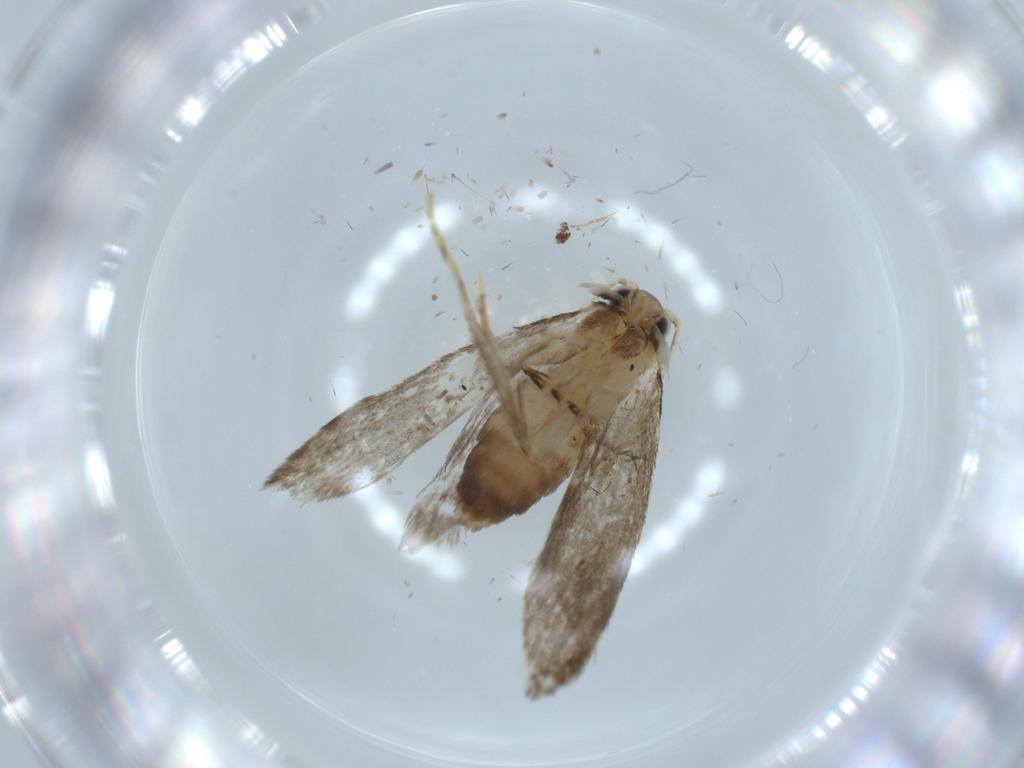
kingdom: Animalia
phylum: Arthropoda
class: Insecta
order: Lepidoptera
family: Tineidae
